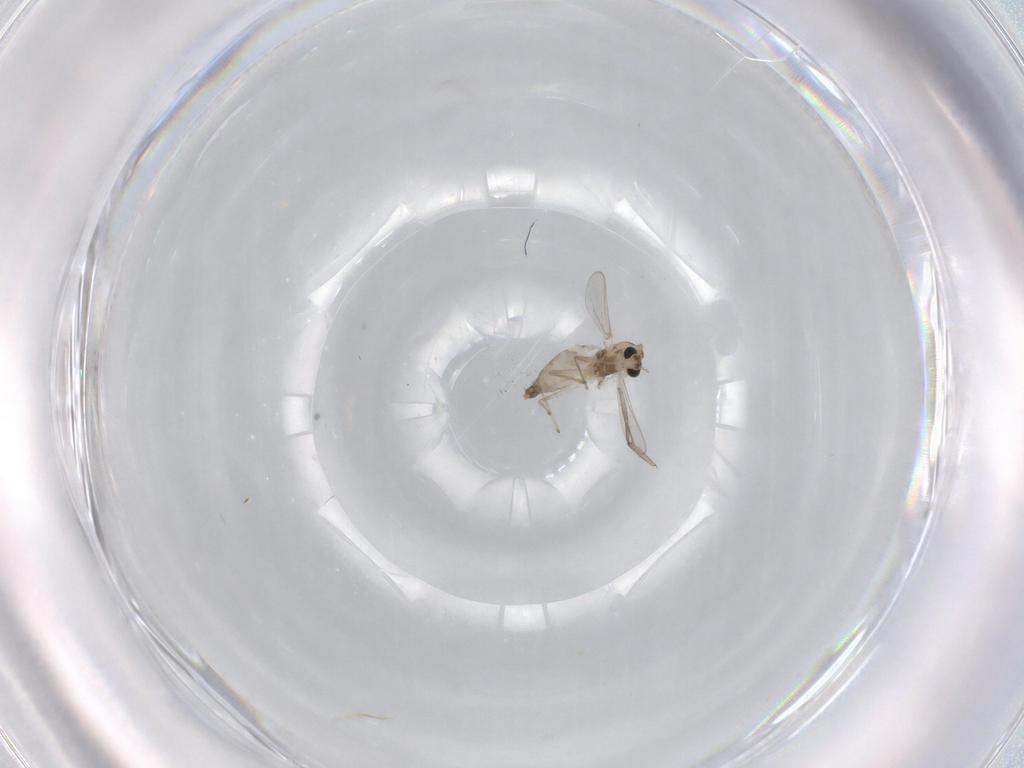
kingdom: Animalia
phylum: Arthropoda
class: Insecta
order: Diptera
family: Chironomidae
